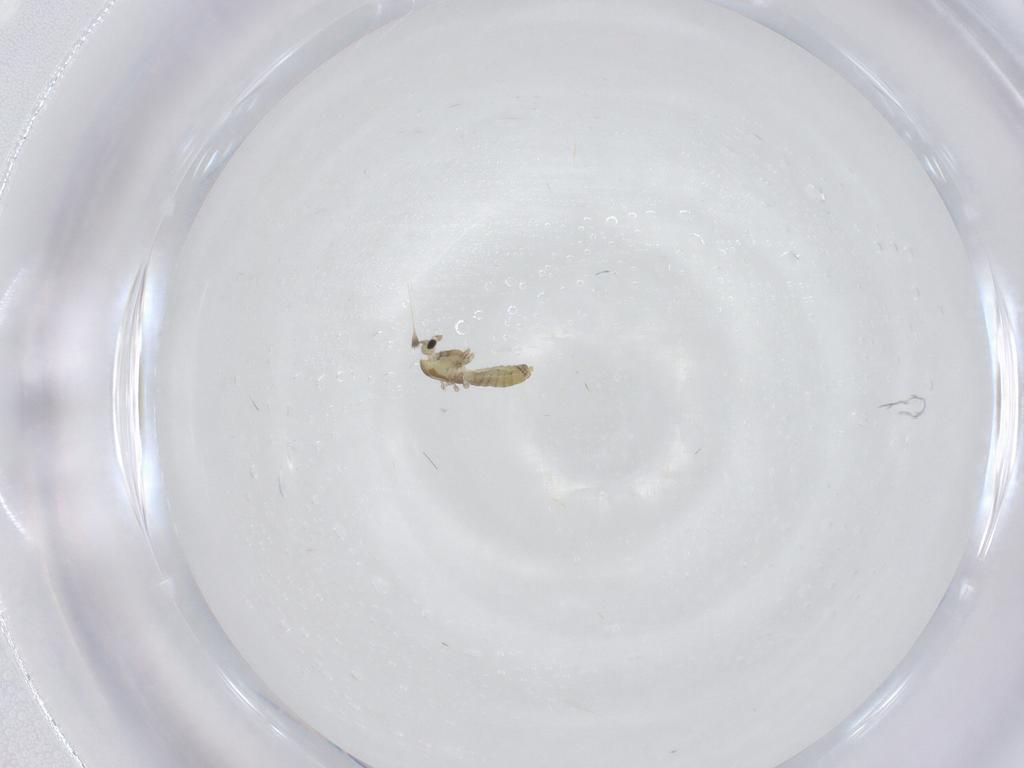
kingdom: Animalia
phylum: Arthropoda
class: Insecta
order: Diptera
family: Chironomidae
